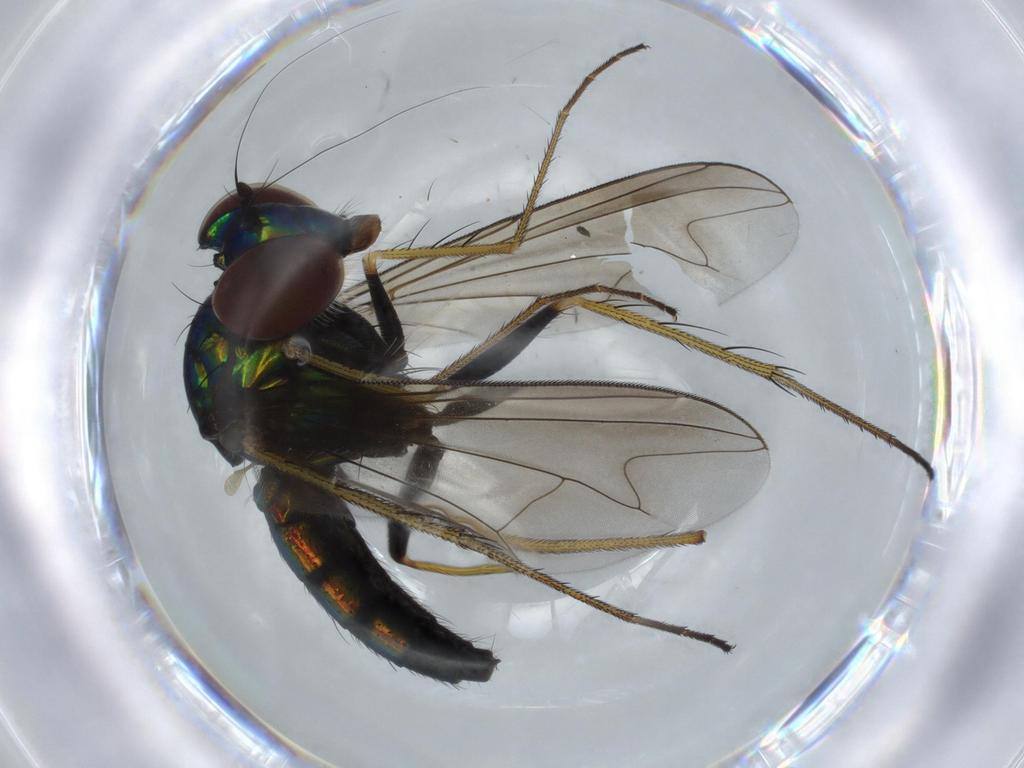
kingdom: Animalia
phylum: Arthropoda
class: Insecta
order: Diptera
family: Dolichopodidae
